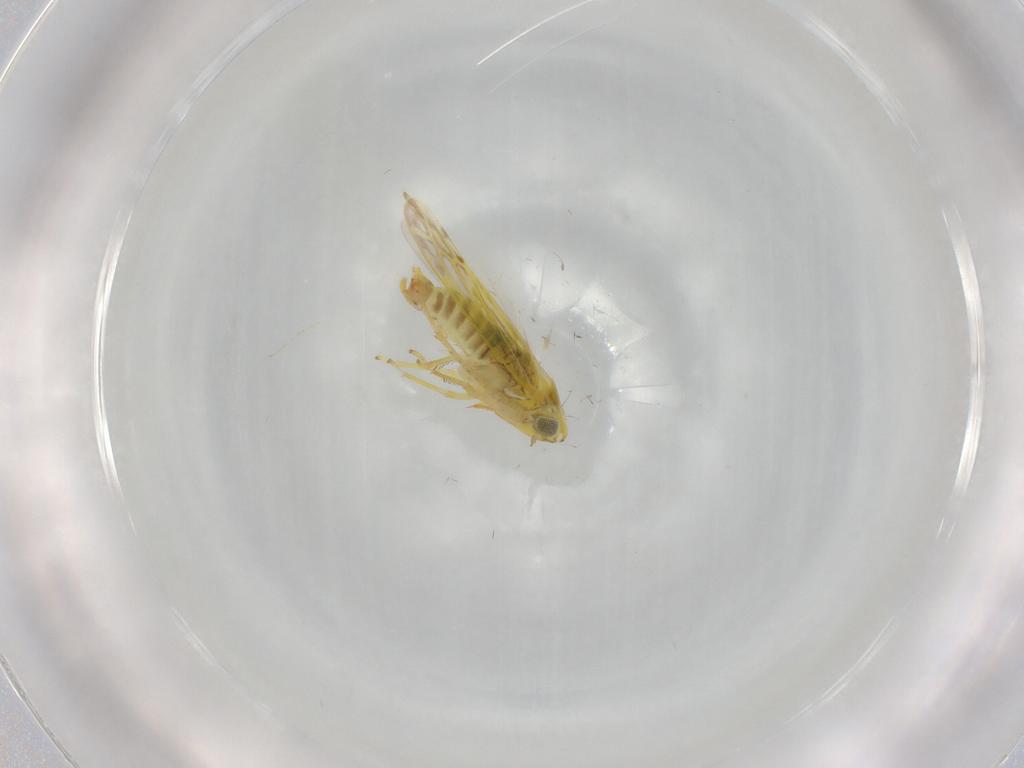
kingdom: Animalia
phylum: Arthropoda
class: Insecta
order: Hemiptera
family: Cicadellidae
